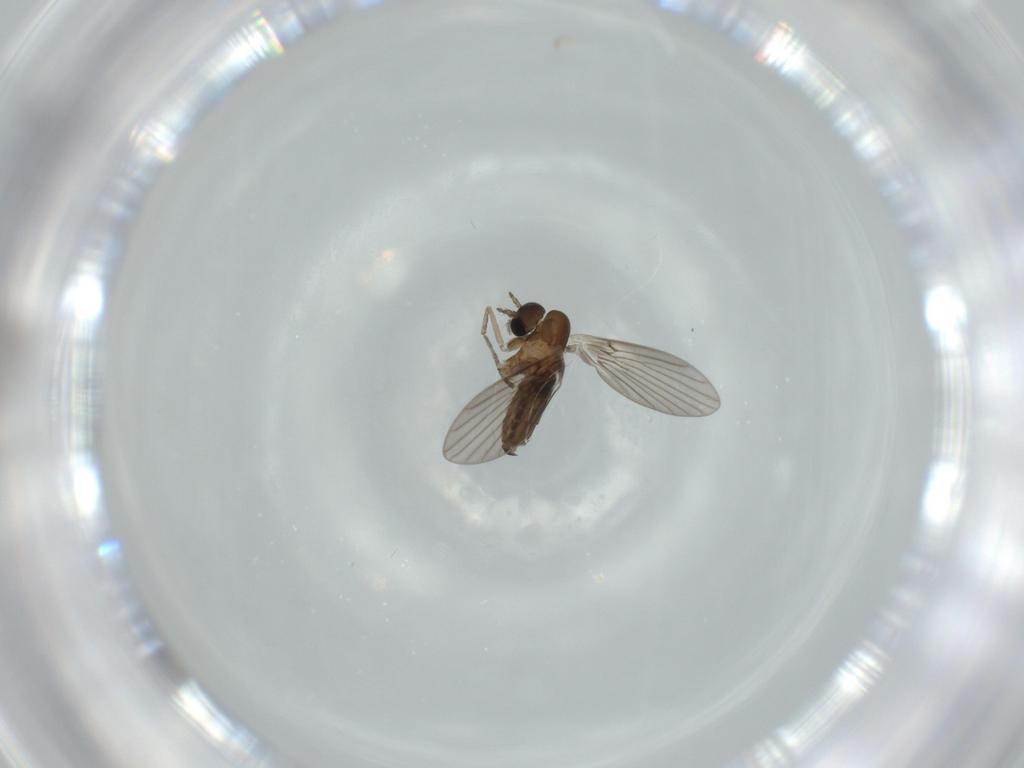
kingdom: Animalia
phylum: Arthropoda
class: Insecta
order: Diptera
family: Psychodidae
